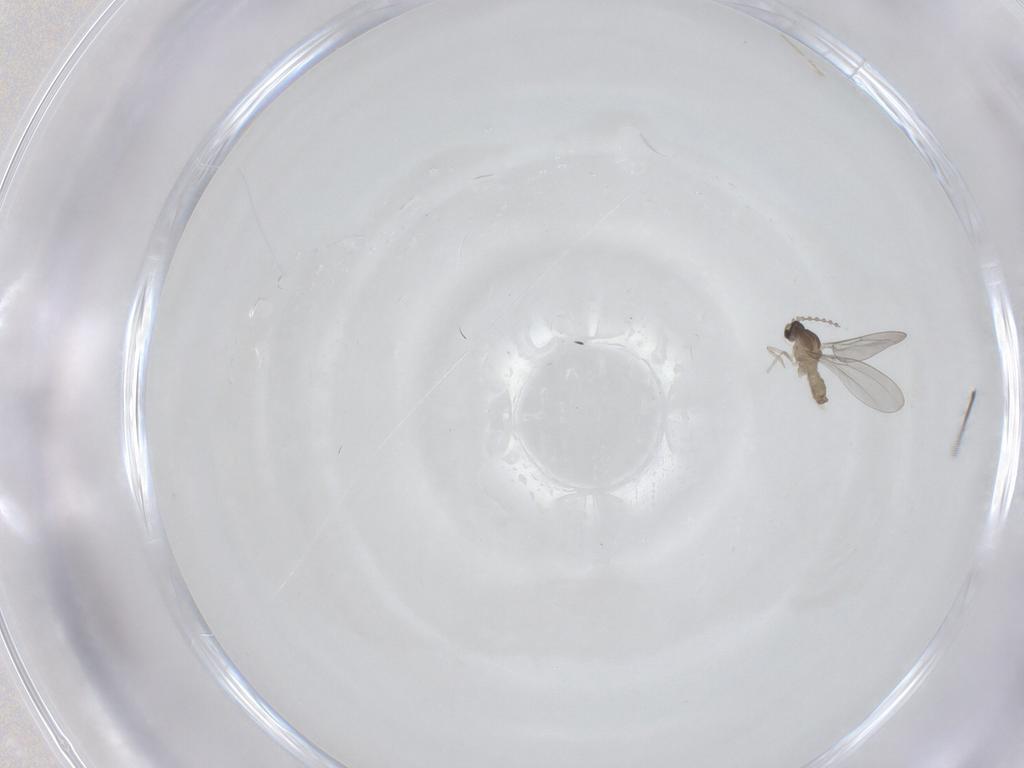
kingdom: Animalia
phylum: Arthropoda
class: Insecta
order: Diptera
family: Cecidomyiidae
